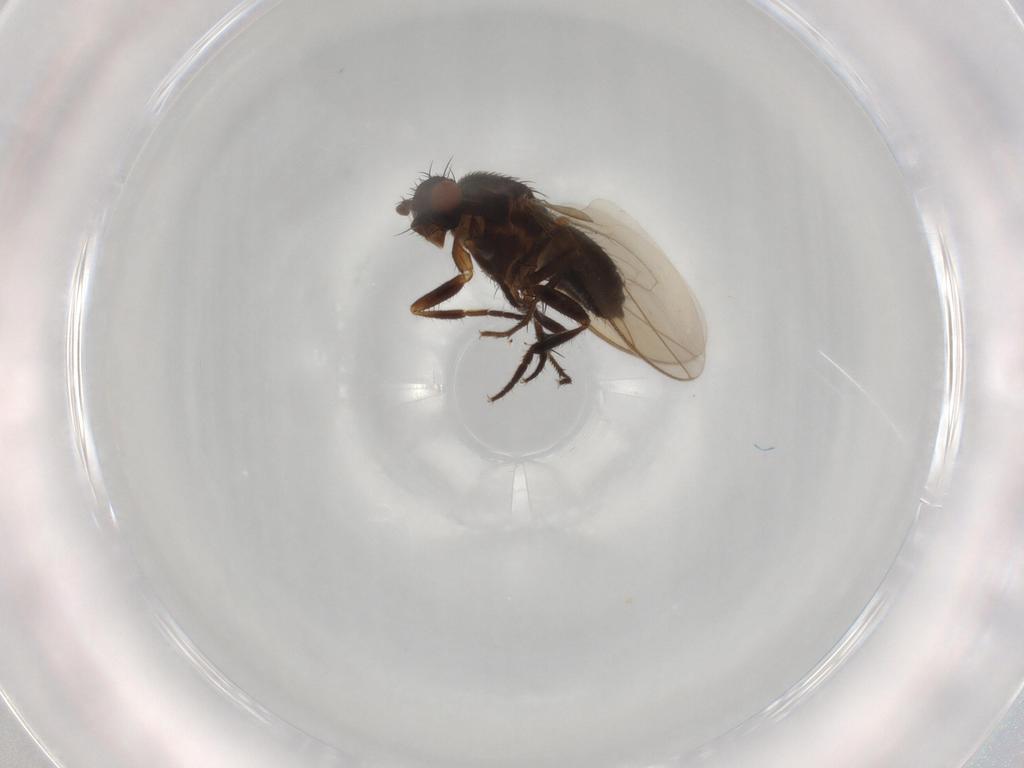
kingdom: Animalia
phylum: Arthropoda
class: Insecta
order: Diptera
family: Sphaeroceridae
